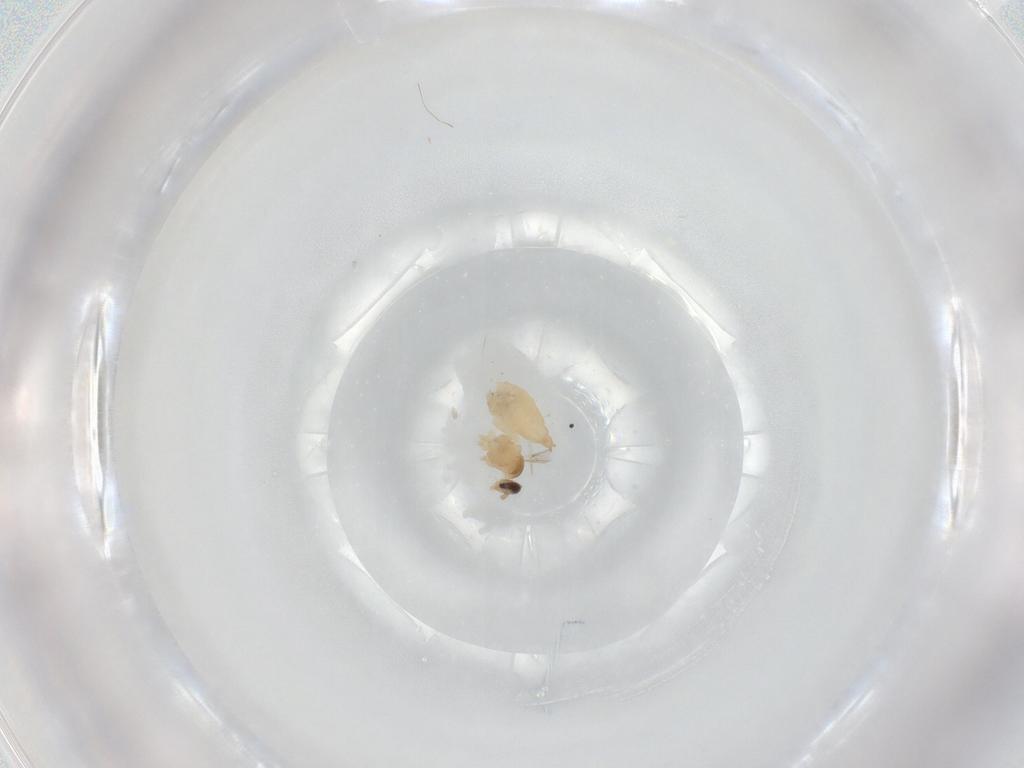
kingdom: Animalia
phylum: Arthropoda
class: Insecta
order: Diptera
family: Cecidomyiidae
